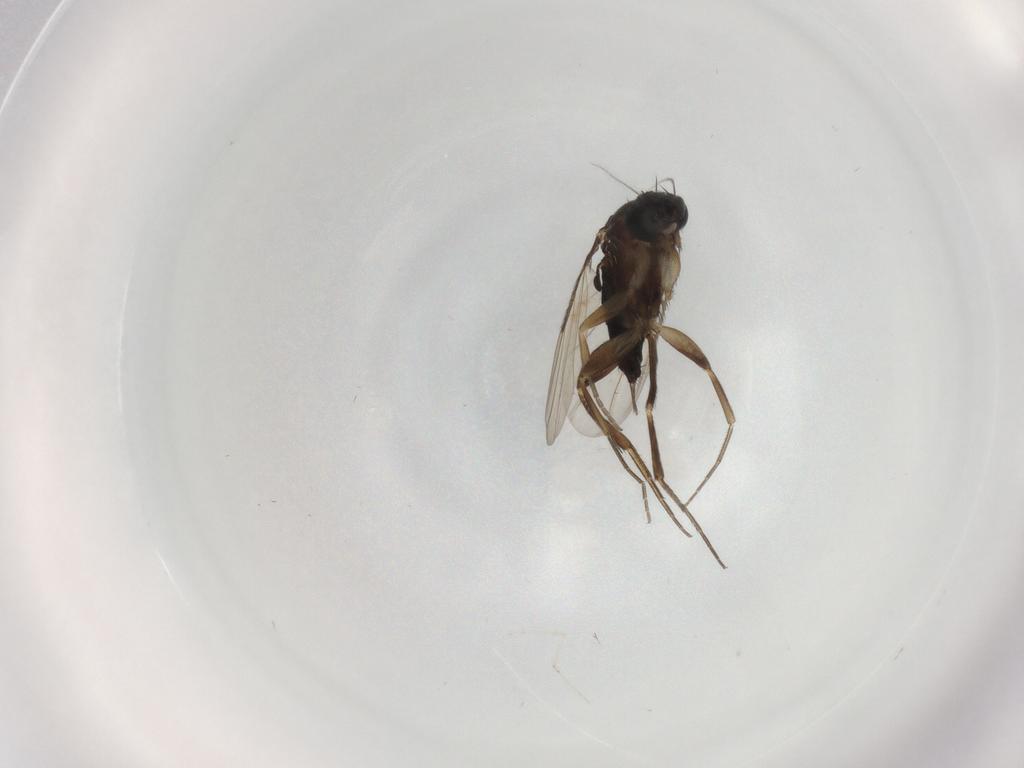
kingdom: Animalia
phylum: Arthropoda
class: Insecta
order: Diptera
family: Phoridae
